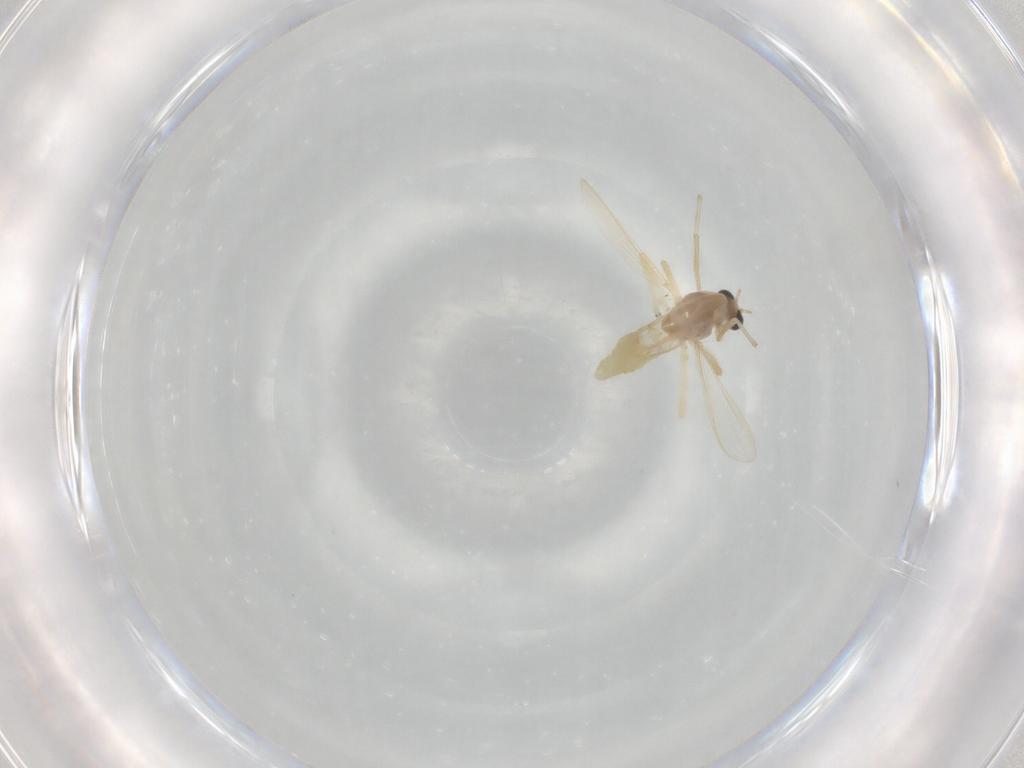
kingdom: Animalia
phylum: Arthropoda
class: Insecta
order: Diptera
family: Chironomidae
